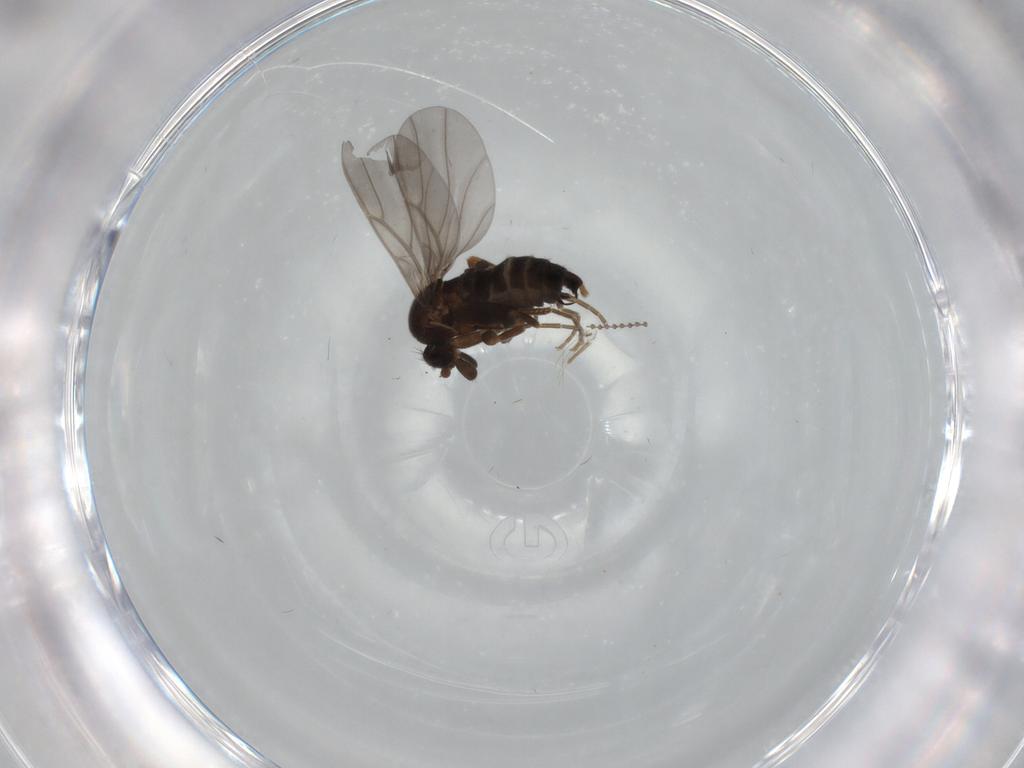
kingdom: Animalia
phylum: Arthropoda
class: Insecta
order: Diptera
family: Phoridae
